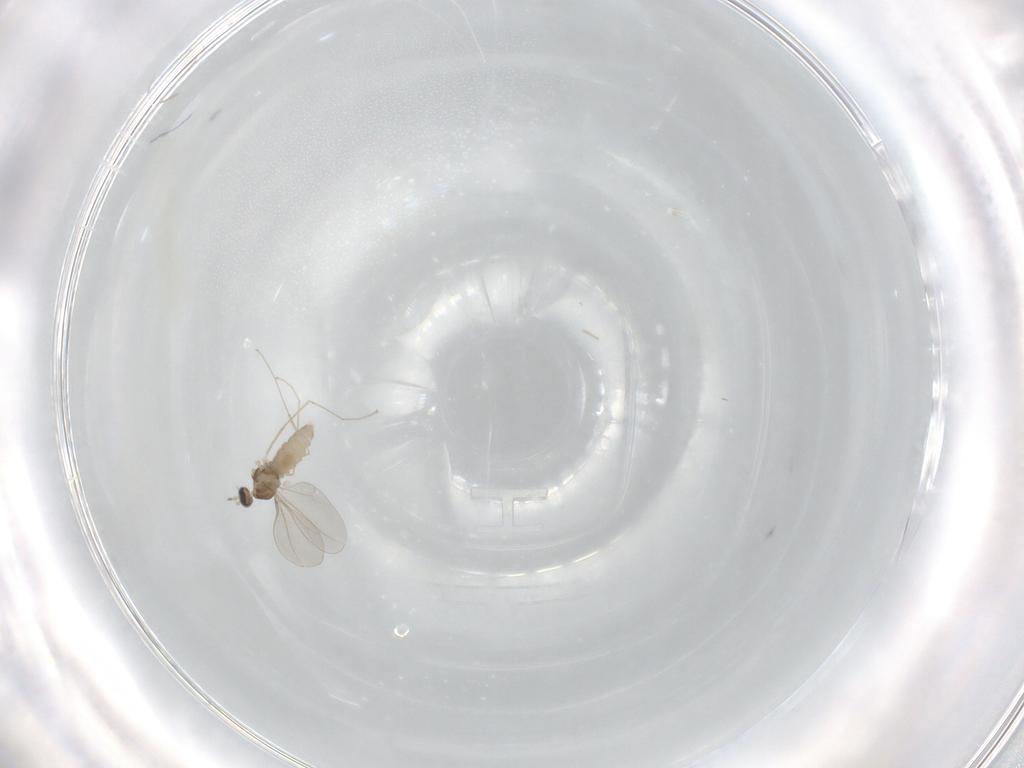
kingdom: Animalia
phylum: Arthropoda
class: Insecta
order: Diptera
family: Cecidomyiidae
